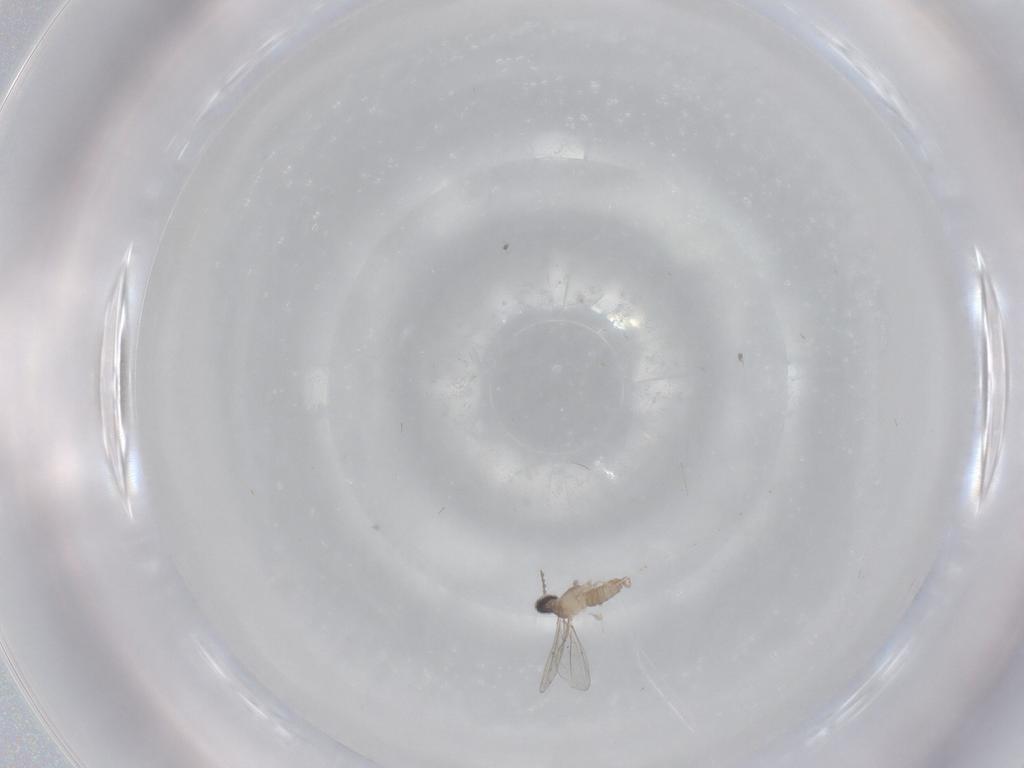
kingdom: Animalia
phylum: Arthropoda
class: Insecta
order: Diptera
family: Cecidomyiidae
